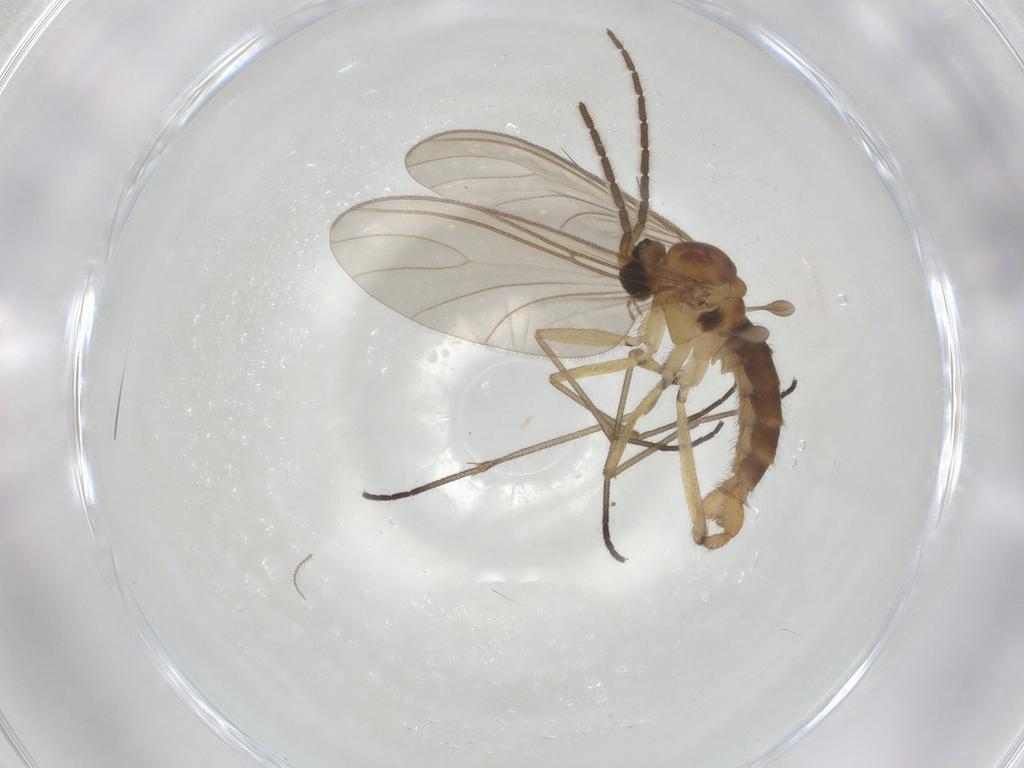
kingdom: Animalia
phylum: Arthropoda
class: Insecta
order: Diptera
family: Sciaridae
